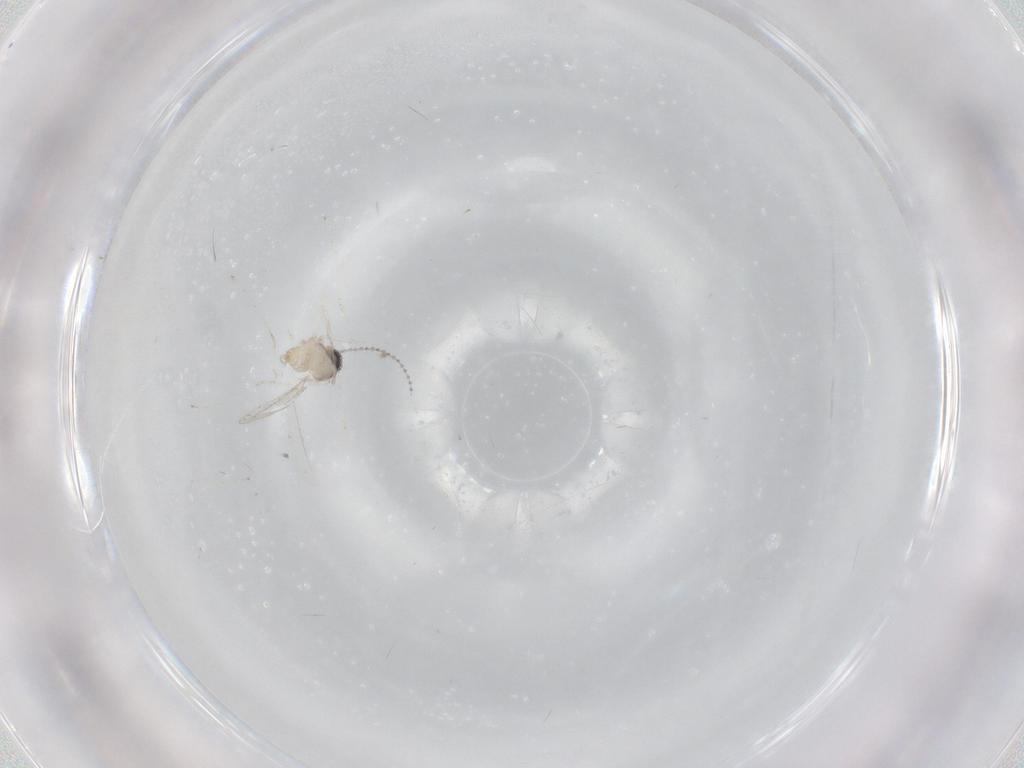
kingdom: Animalia
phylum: Arthropoda
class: Insecta
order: Diptera
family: Cecidomyiidae
